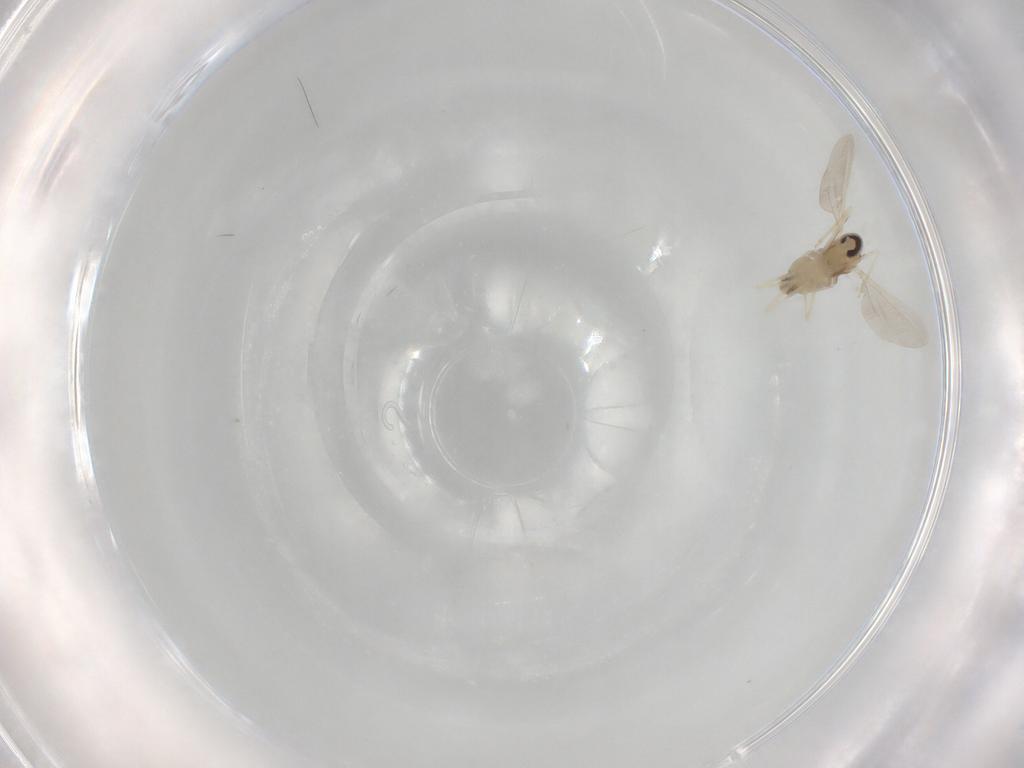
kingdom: Animalia
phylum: Arthropoda
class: Insecta
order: Diptera
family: Cecidomyiidae
